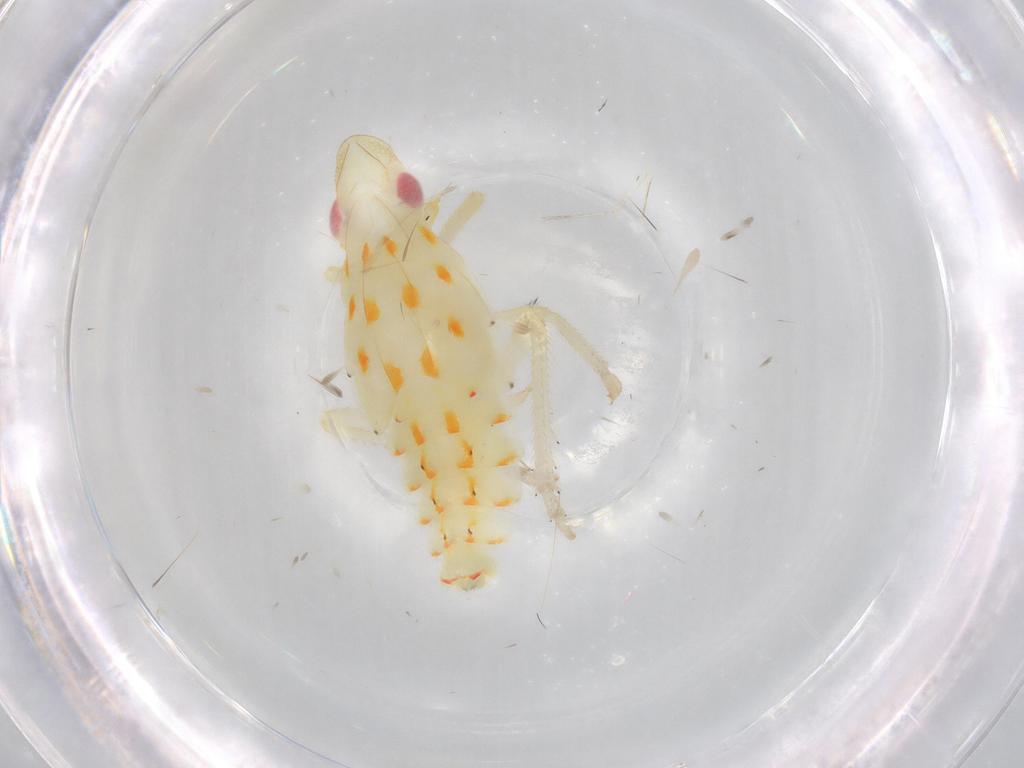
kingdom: Animalia
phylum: Arthropoda
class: Insecta
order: Hemiptera
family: Tropiduchidae
